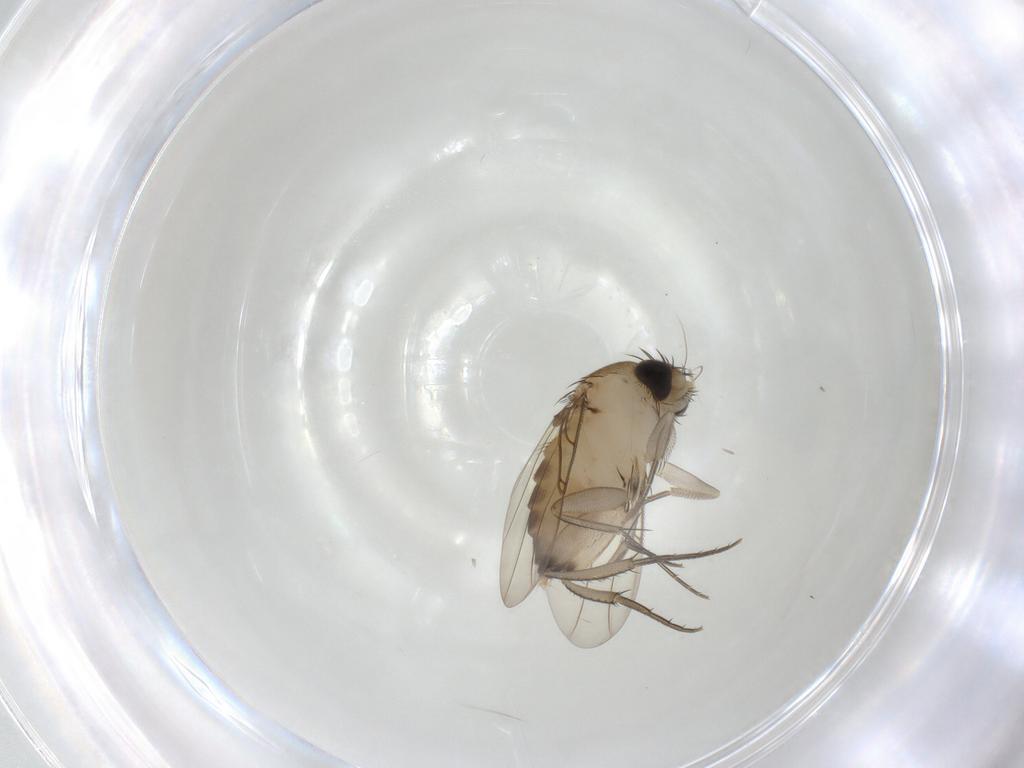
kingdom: Animalia
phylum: Arthropoda
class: Insecta
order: Diptera
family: Phoridae
